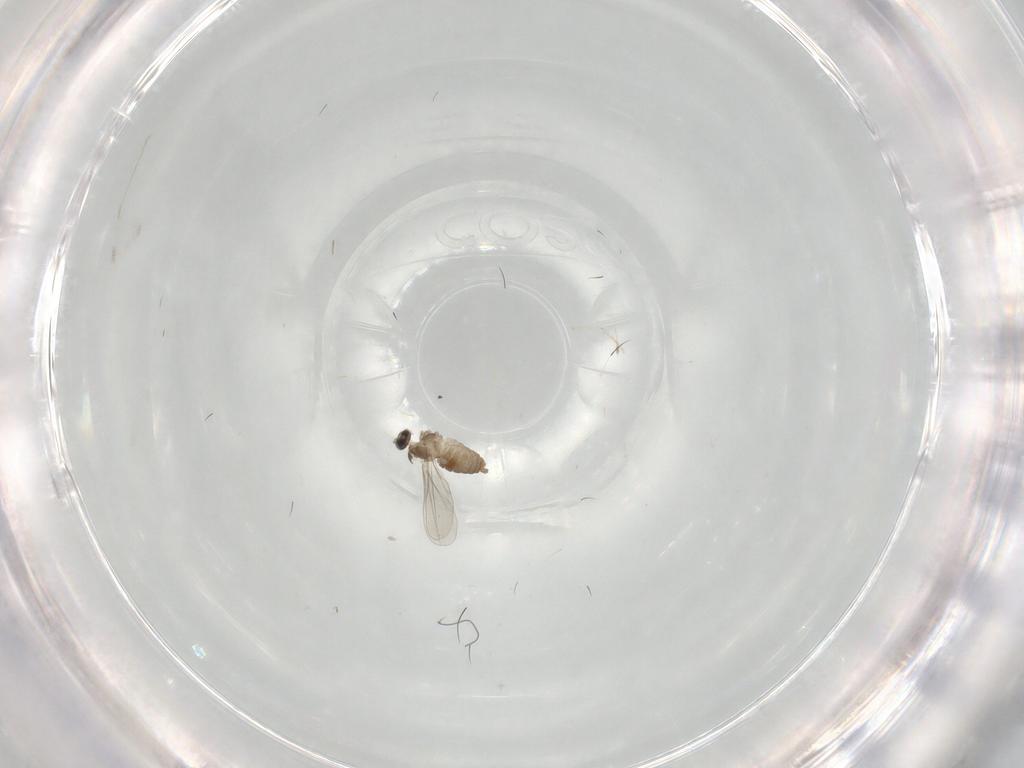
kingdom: Animalia
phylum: Arthropoda
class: Insecta
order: Diptera
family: Cecidomyiidae
